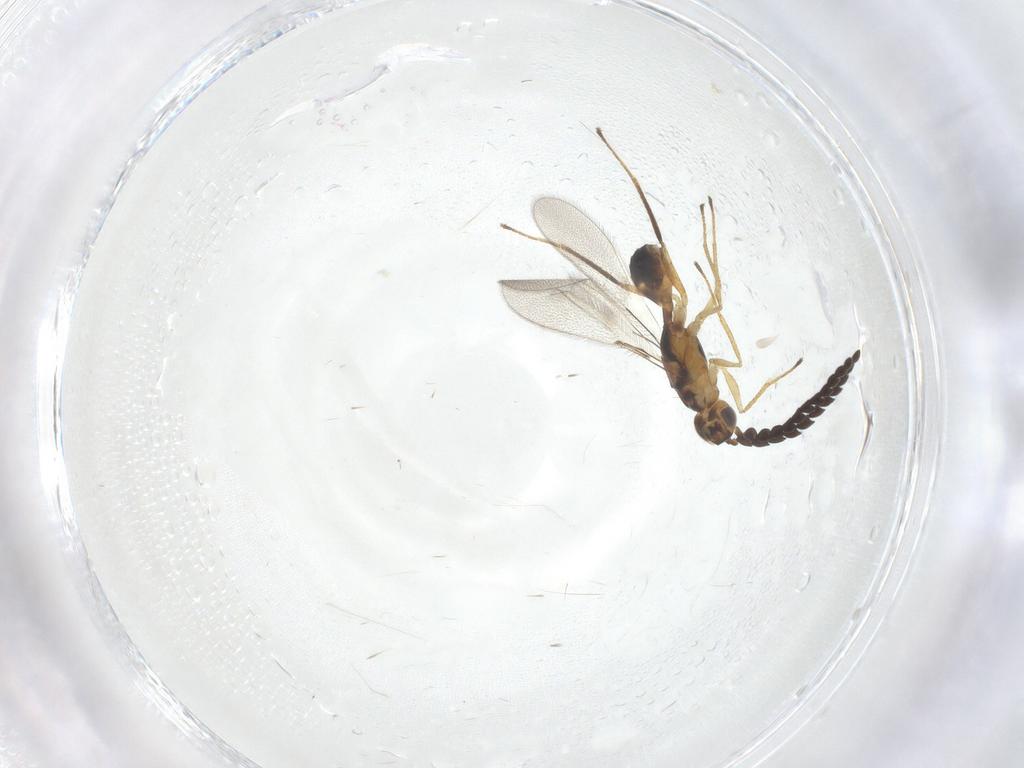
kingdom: Animalia
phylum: Arthropoda
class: Insecta
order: Hymenoptera
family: Mymaridae
